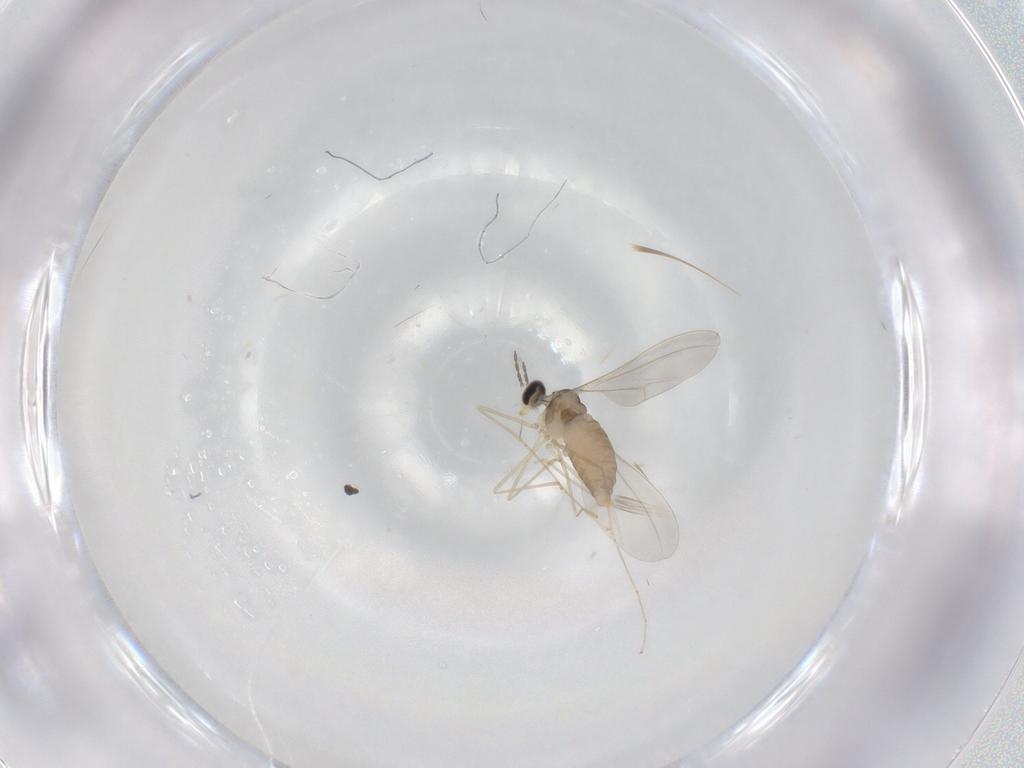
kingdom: Animalia
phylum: Arthropoda
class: Insecta
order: Diptera
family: Cecidomyiidae
